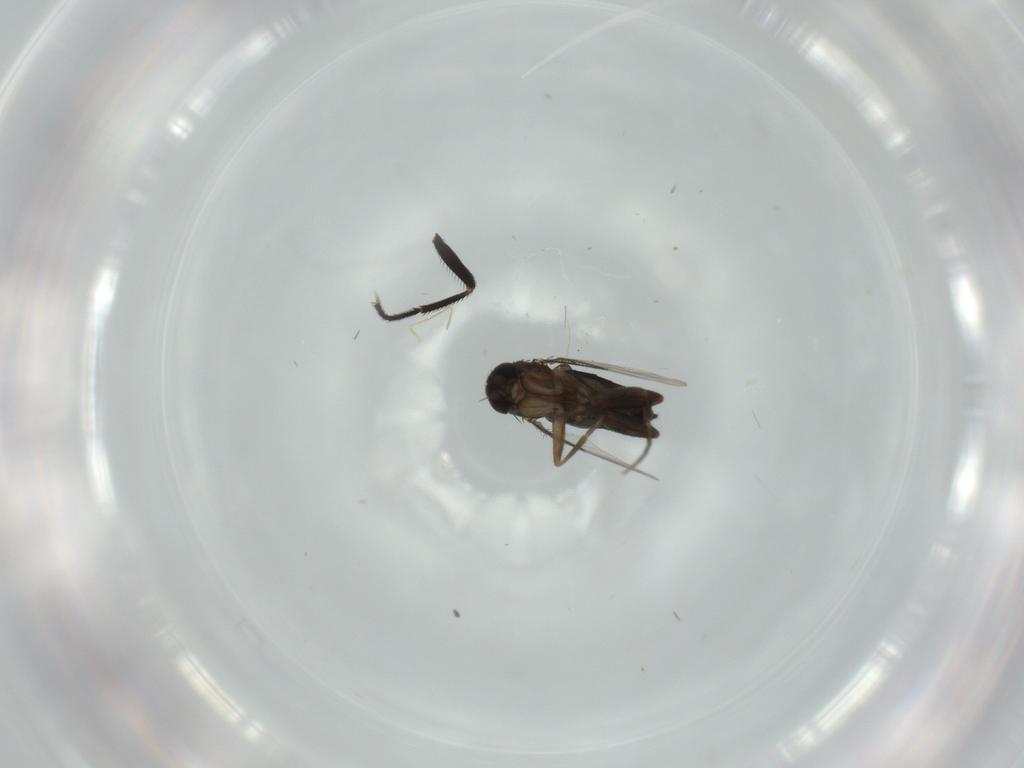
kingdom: Animalia
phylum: Arthropoda
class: Insecta
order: Diptera
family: Phoridae
